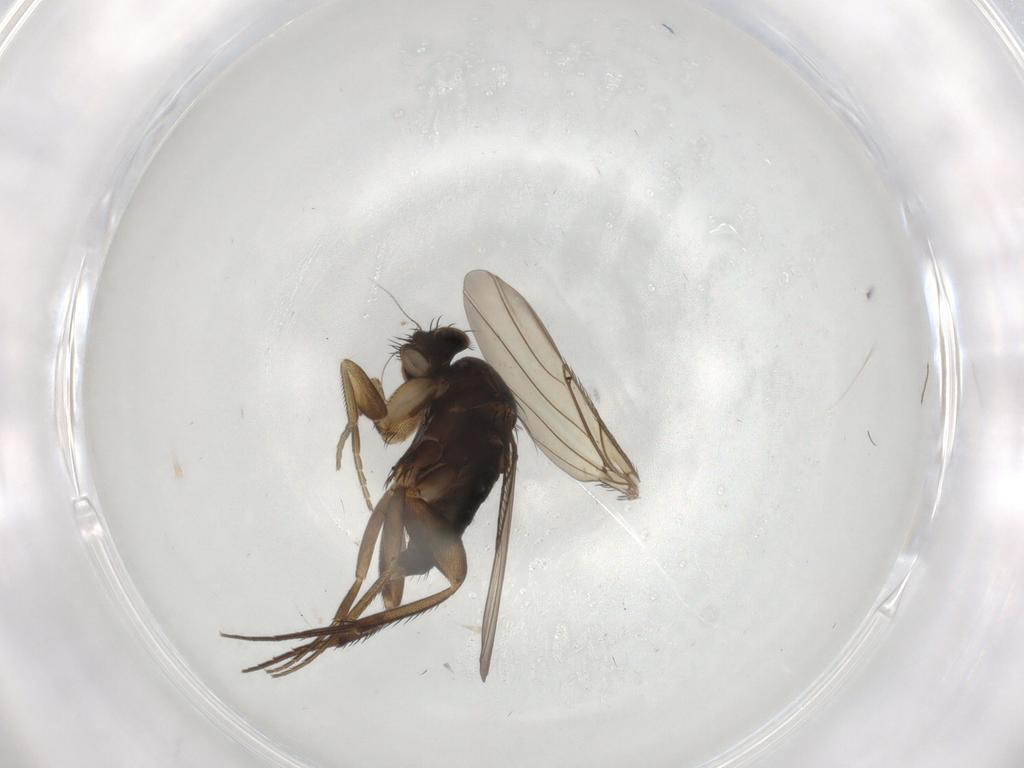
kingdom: Animalia
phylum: Arthropoda
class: Insecta
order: Diptera
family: Phoridae
